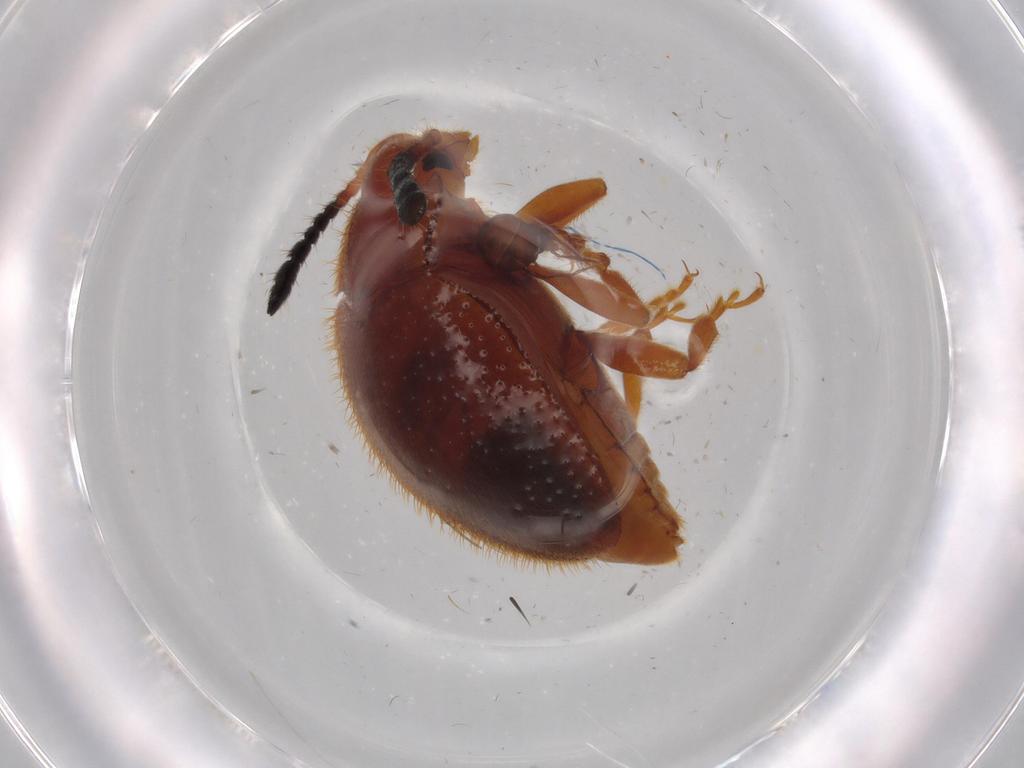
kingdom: Animalia
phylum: Arthropoda
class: Insecta
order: Coleoptera
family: Endomychidae
